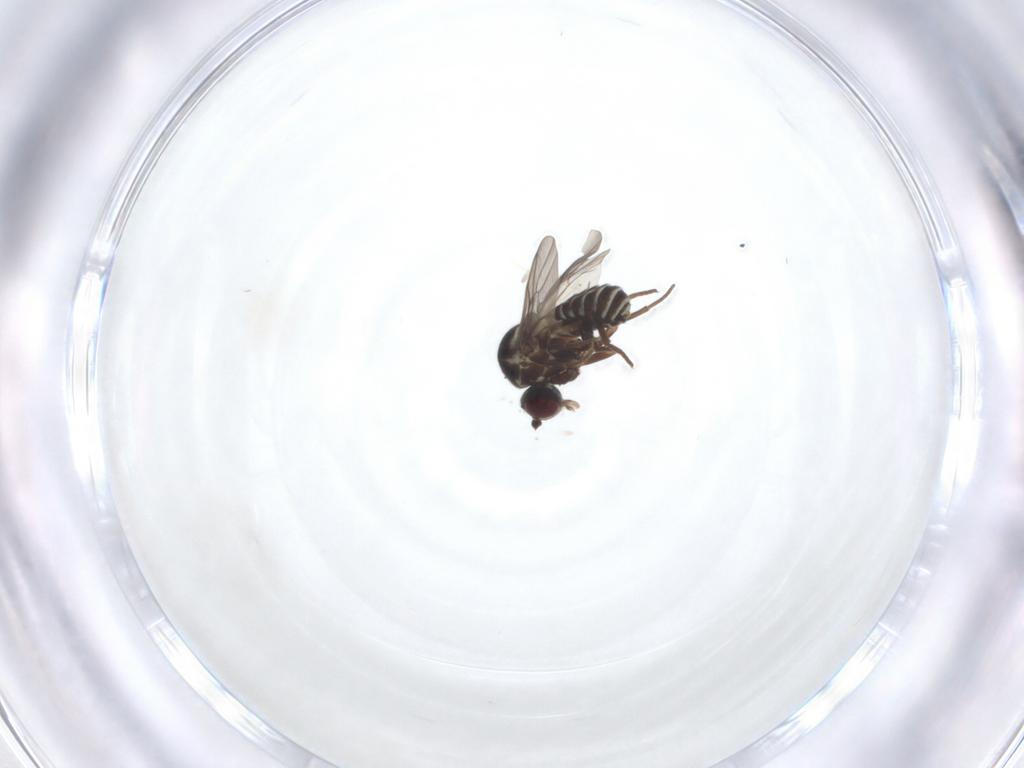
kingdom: Animalia
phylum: Arthropoda
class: Insecta
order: Diptera
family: Mythicomyiidae
